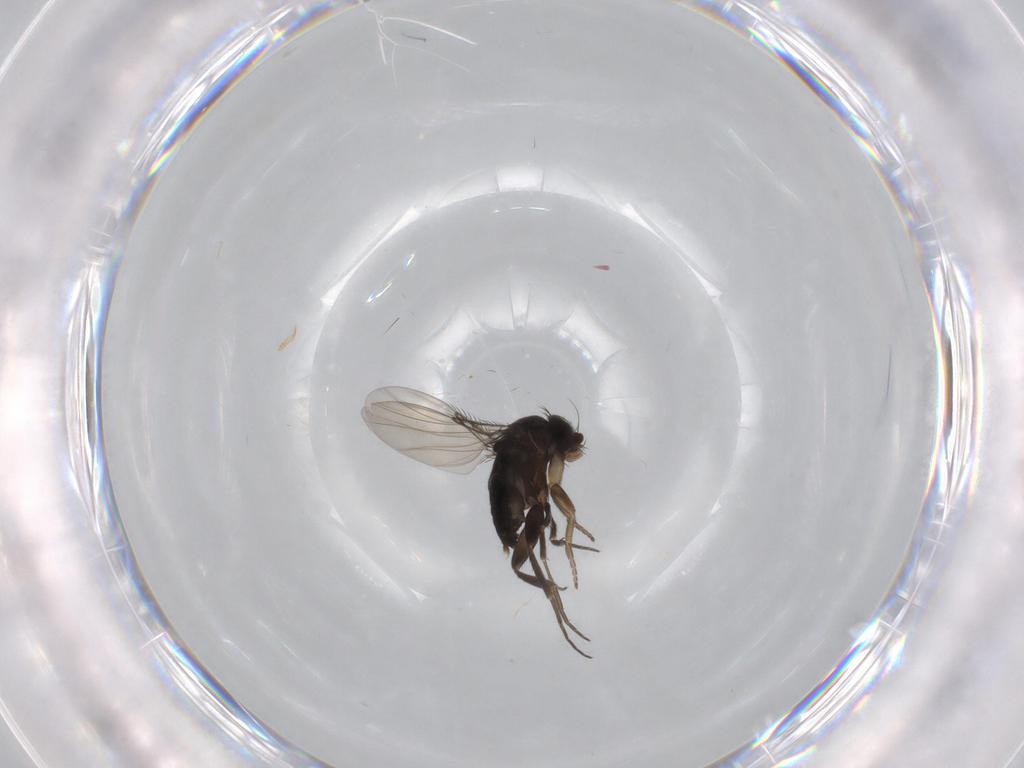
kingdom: Animalia
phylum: Arthropoda
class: Insecta
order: Diptera
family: Phoridae
